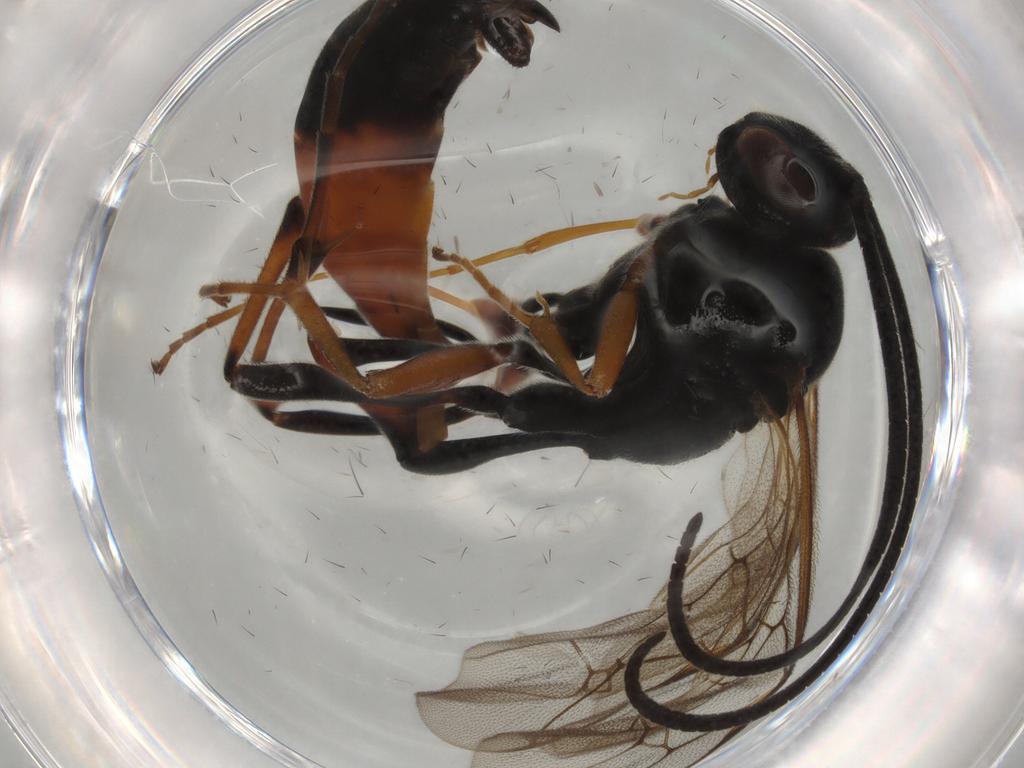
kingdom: Animalia
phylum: Arthropoda
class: Insecta
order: Hymenoptera
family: Ichneumonidae
